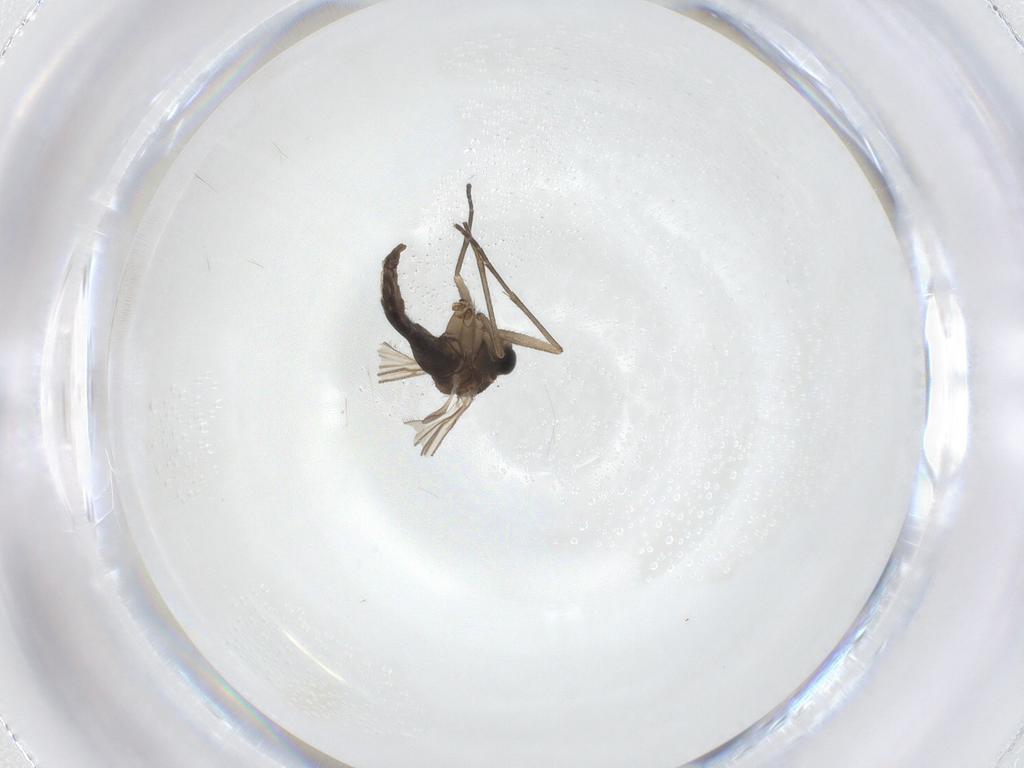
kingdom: Animalia
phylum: Arthropoda
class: Insecta
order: Diptera
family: Sciaridae
